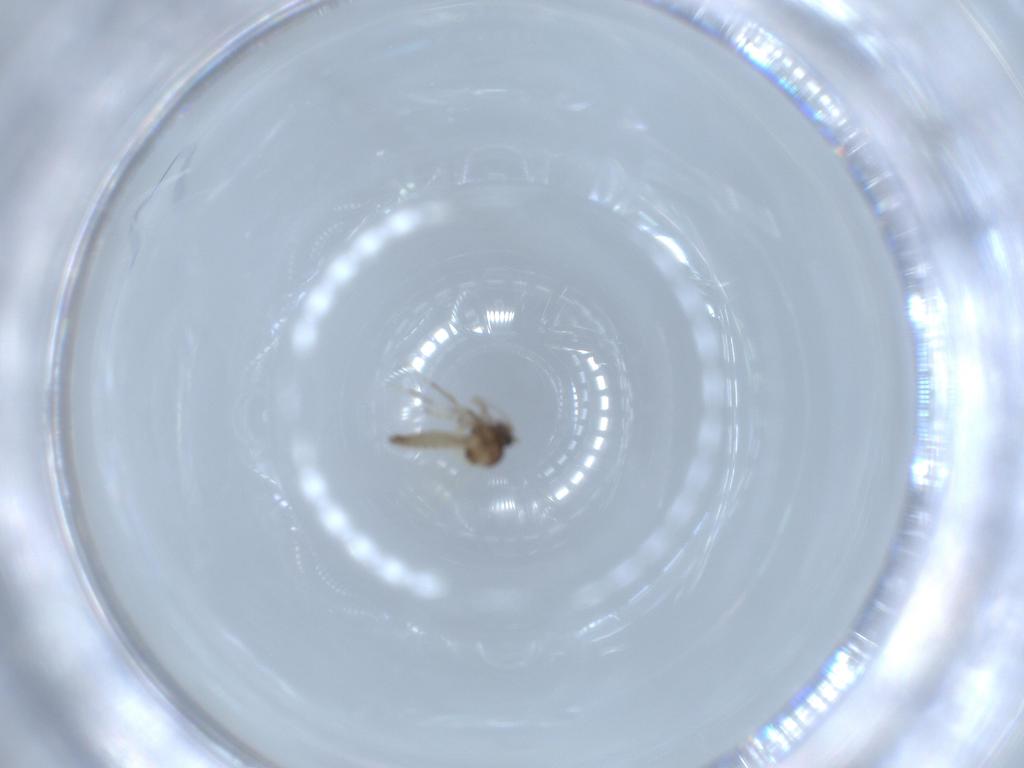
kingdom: Animalia
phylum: Arthropoda
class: Insecta
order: Diptera
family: Ceratopogonidae
